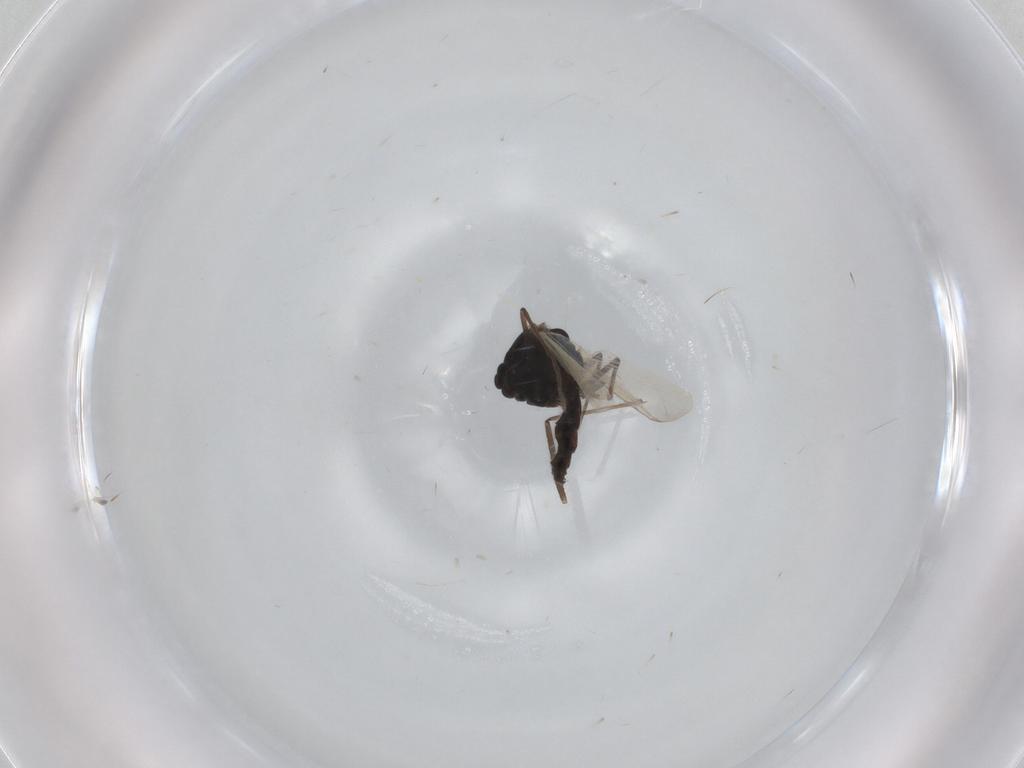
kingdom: Animalia
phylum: Arthropoda
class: Insecta
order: Diptera
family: Chironomidae
